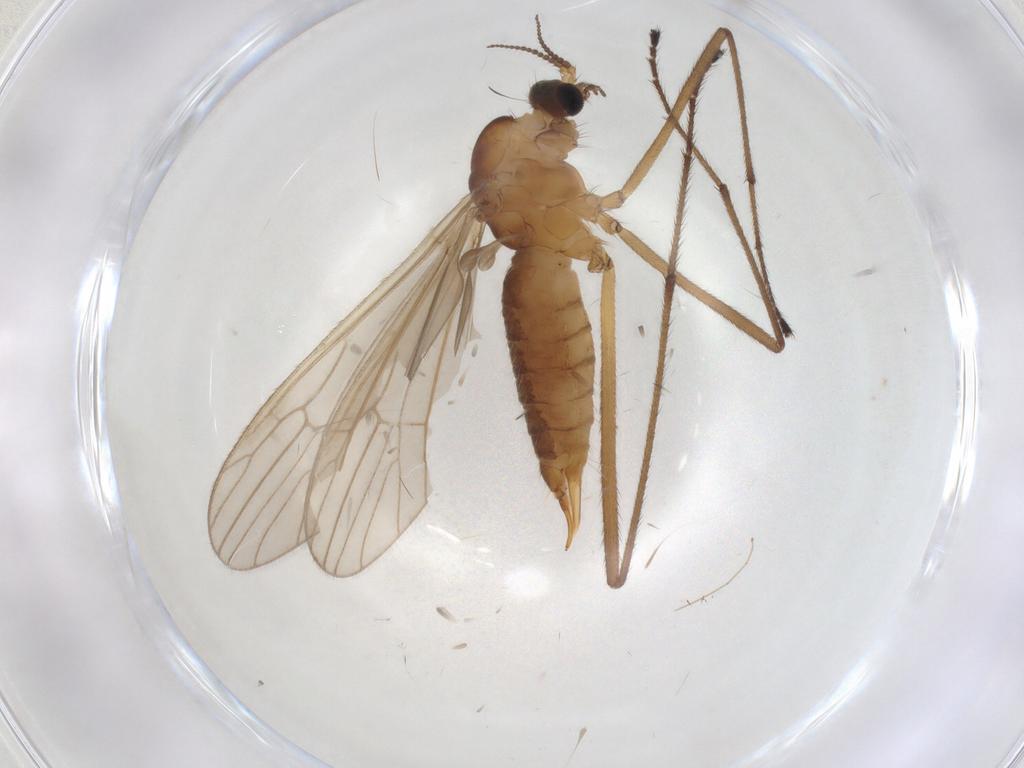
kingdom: Animalia
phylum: Arthropoda
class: Insecta
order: Diptera
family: Limoniidae
